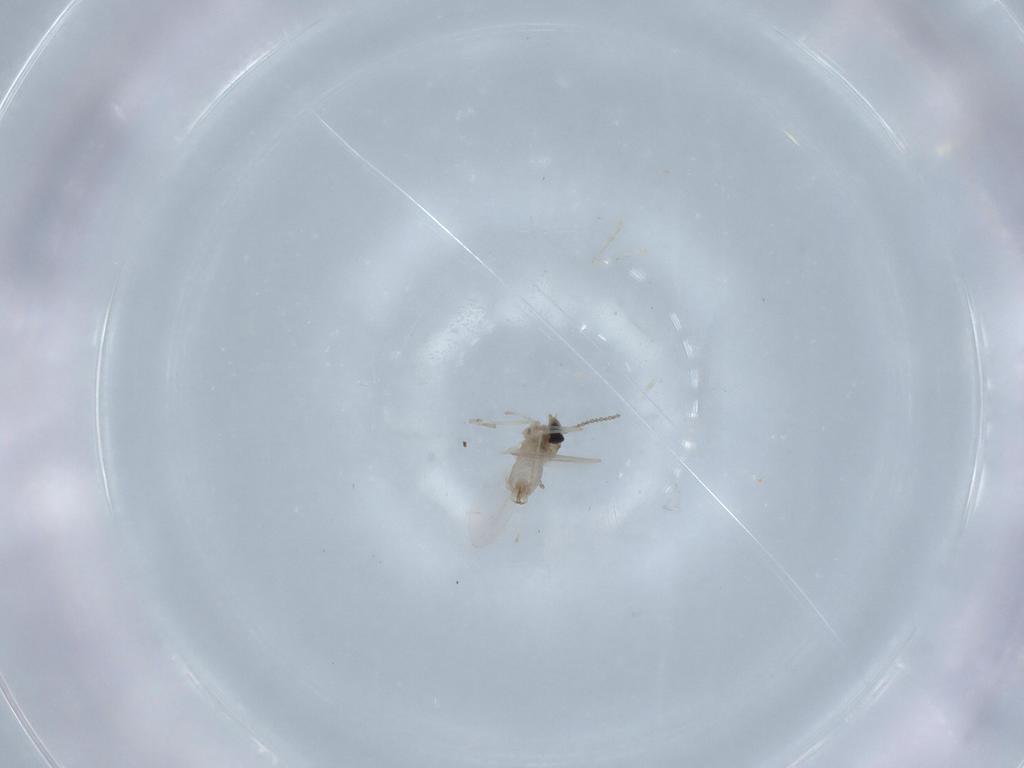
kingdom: Animalia
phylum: Arthropoda
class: Insecta
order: Diptera
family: Cecidomyiidae
